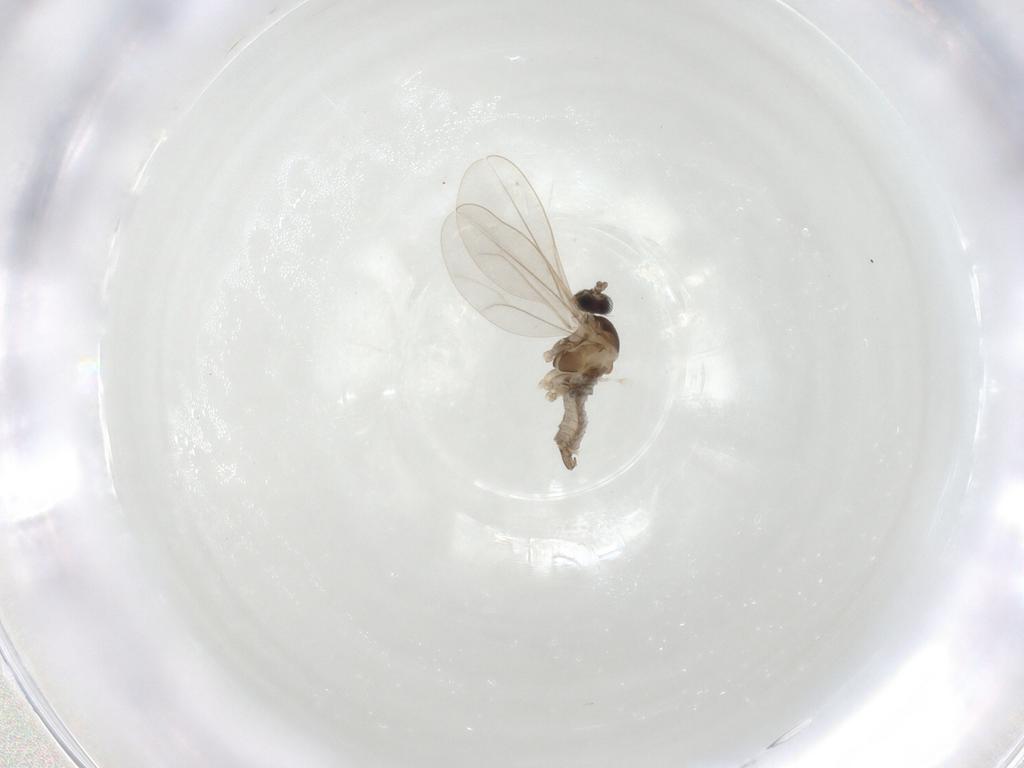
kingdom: Animalia
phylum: Arthropoda
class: Insecta
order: Diptera
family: Cecidomyiidae
